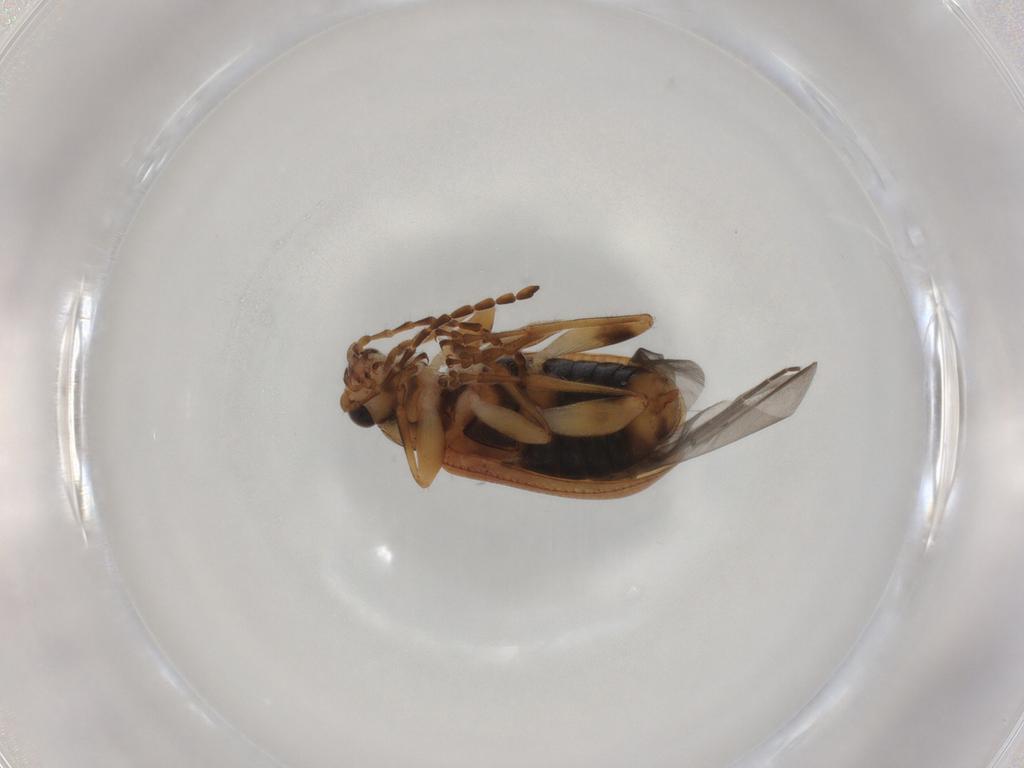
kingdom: Animalia
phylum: Arthropoda
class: Insecta
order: Coleoptera
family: Chrysomelidae
